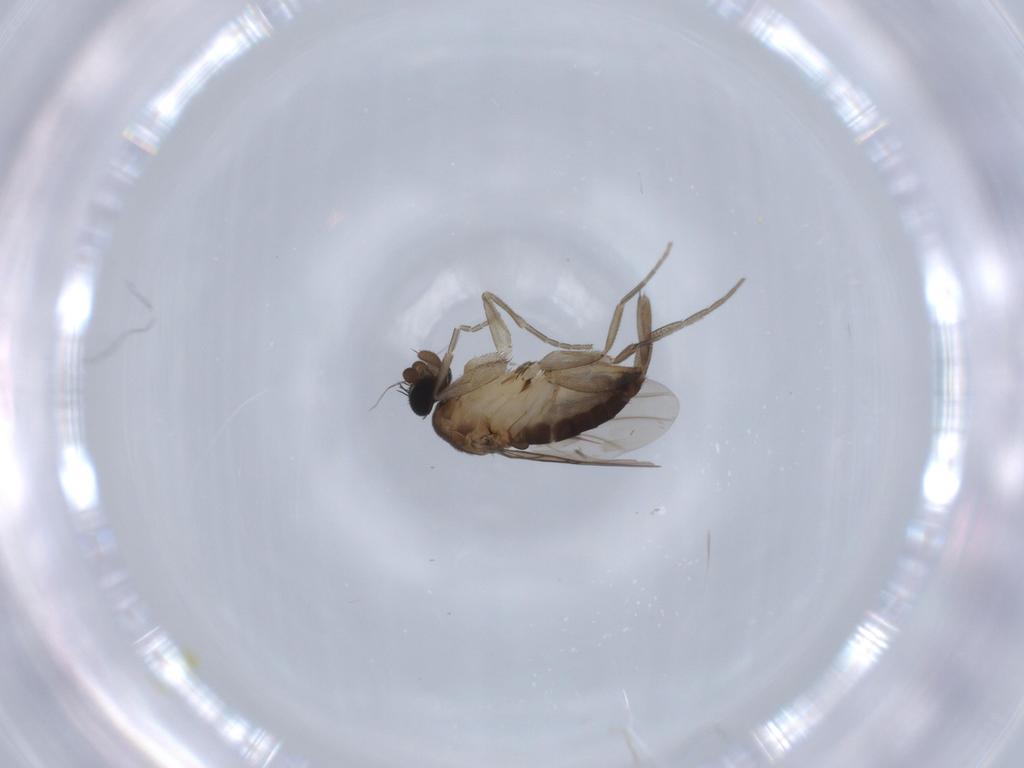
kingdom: Animalia
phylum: Arthropoda
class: Insecta
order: Diptera
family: Phoridae
